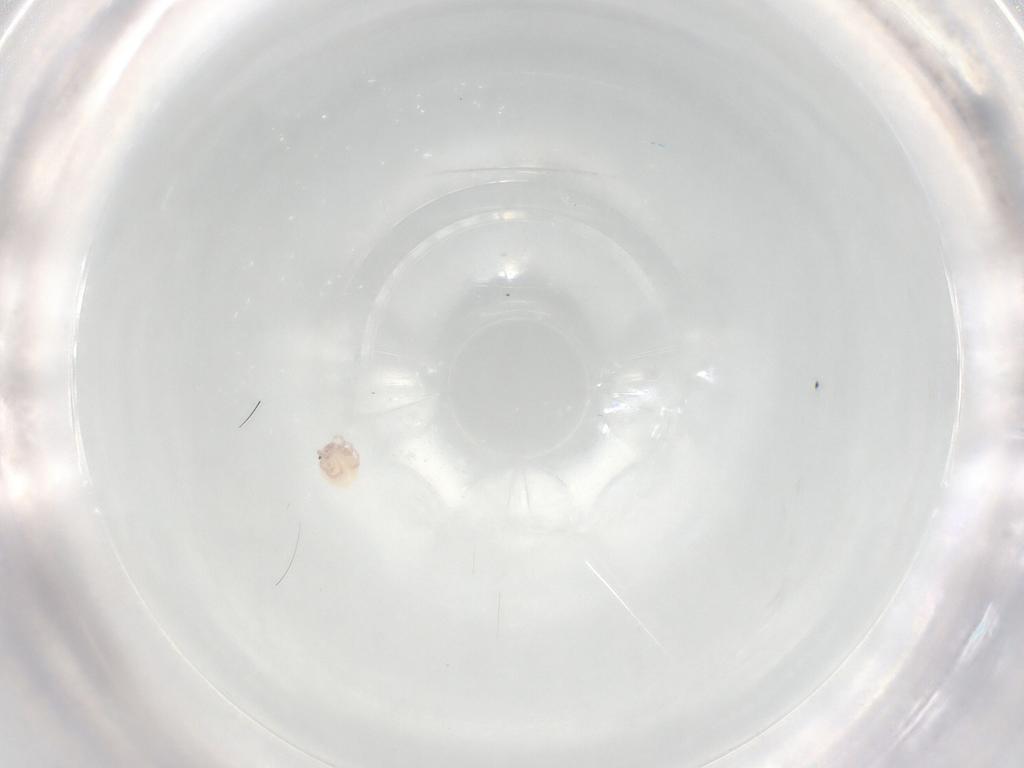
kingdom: Animalia
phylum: Arthropoda
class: Arachnida
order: Trombidiformes
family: Lebertiidae
